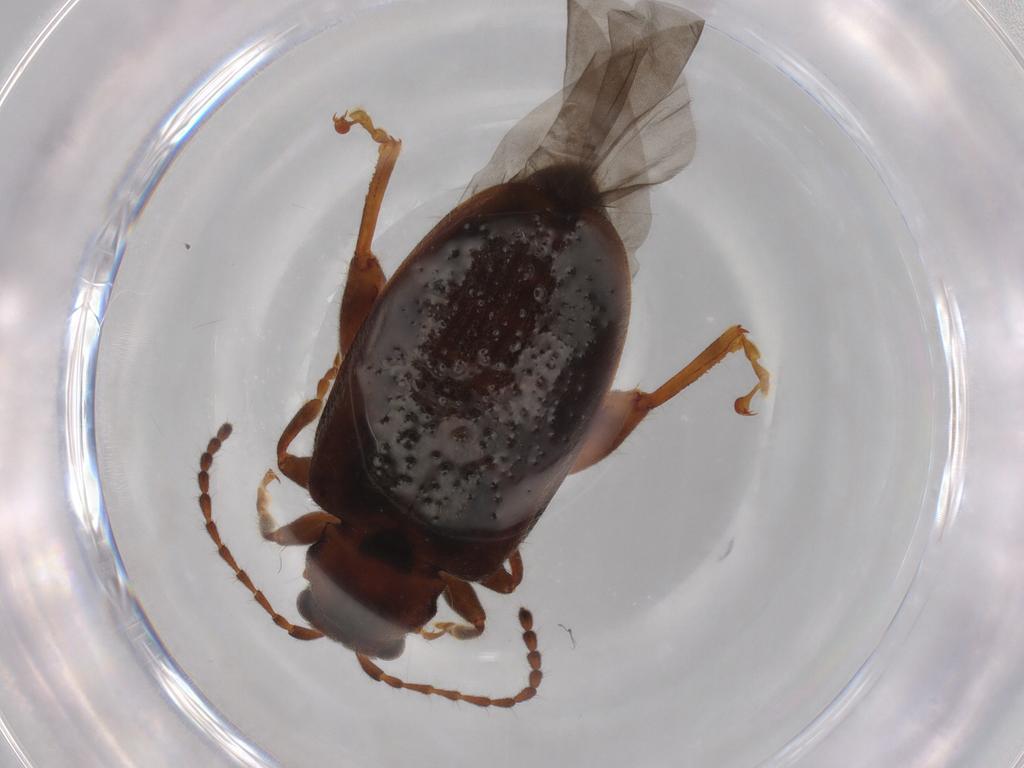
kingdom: Animalia
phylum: Arthropoda
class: Insecta
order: Coleoptera
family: Chrysomelidae
